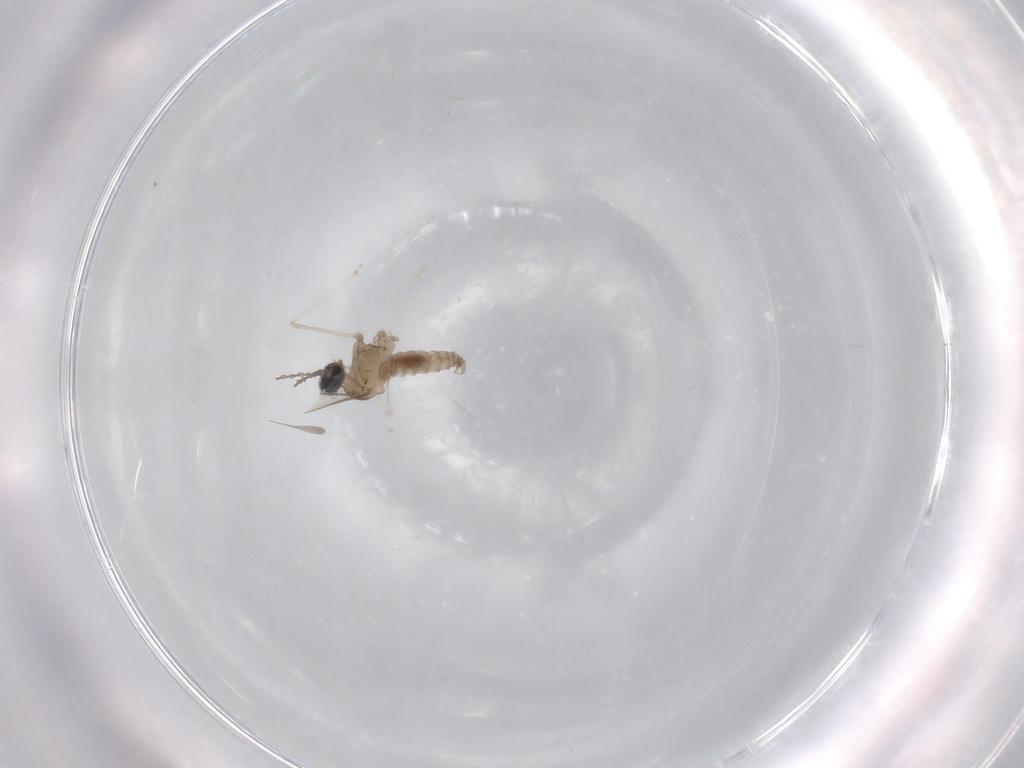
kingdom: Animalia
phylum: Arthropoda
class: Insecta
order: Diptera
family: Cecidomyiidae
